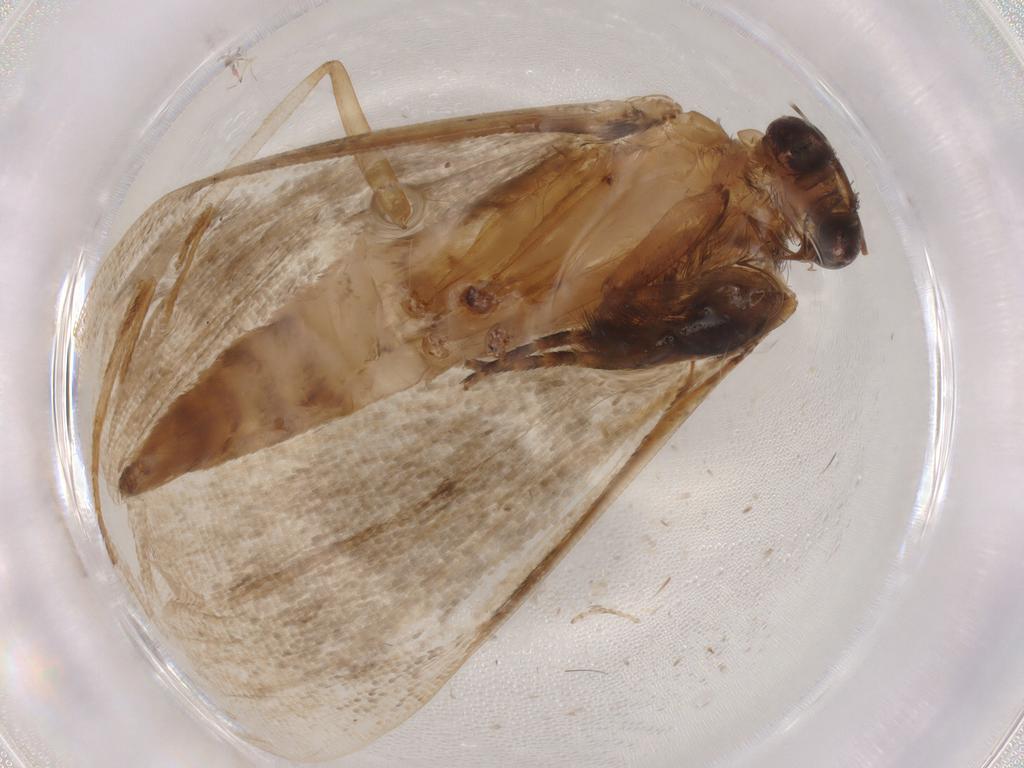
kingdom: Animalia
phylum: Arthropoda
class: Insecta
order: Lepidoptera
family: Erebidae
